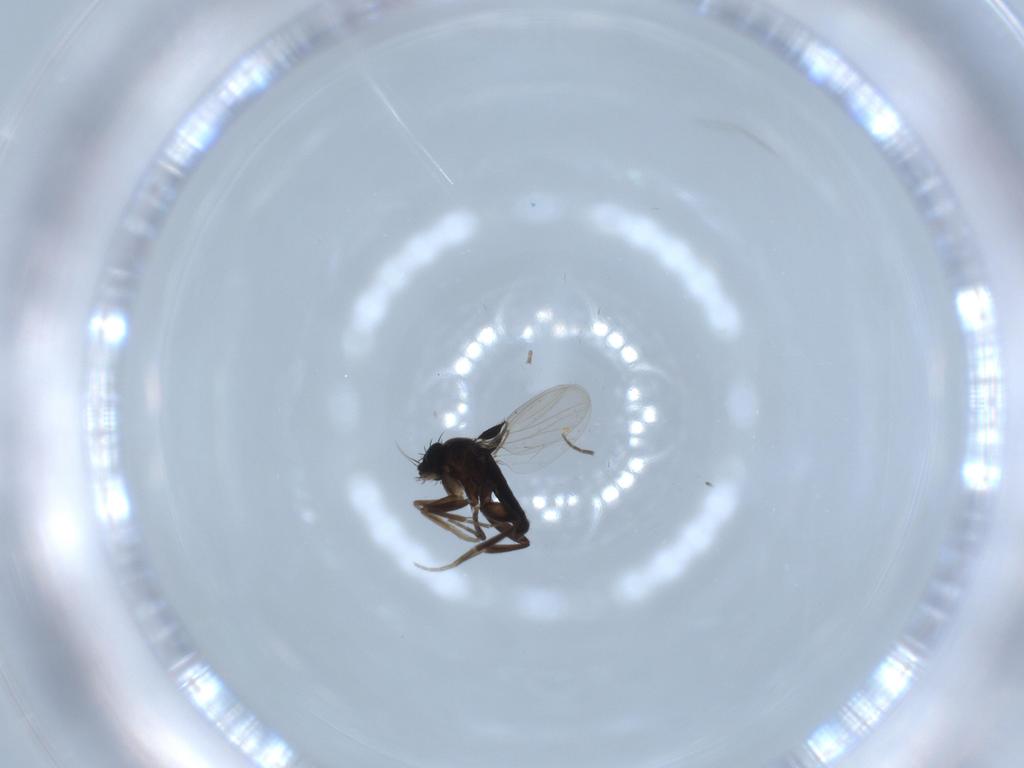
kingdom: Animalia
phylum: Arthropoda
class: Insecta
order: Diptera
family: Phoridae
